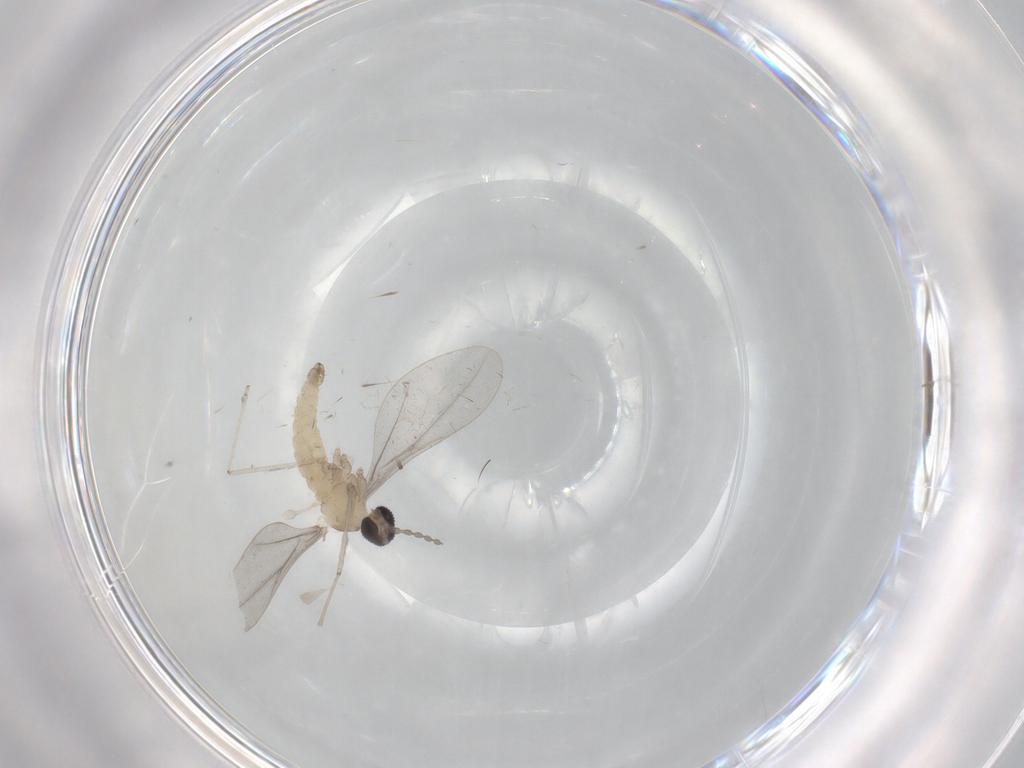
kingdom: Animalia
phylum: Arthropoda
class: Insecta
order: Diptera
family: Cecidomyiidae
